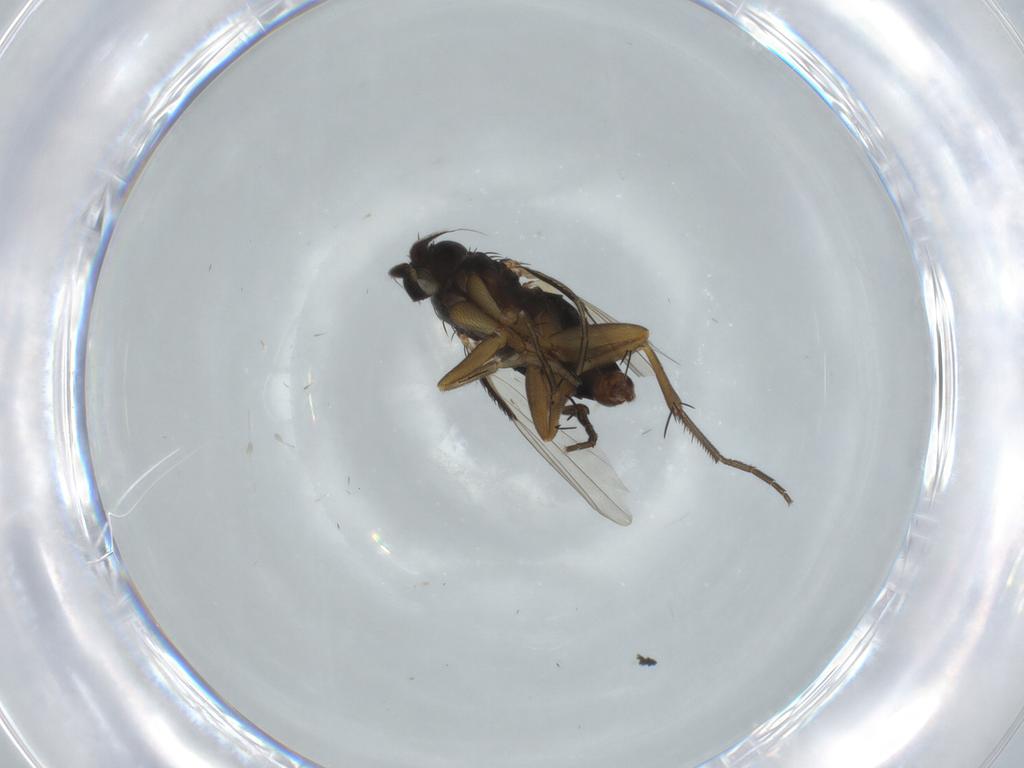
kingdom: Animalia
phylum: Arthropoda
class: Insecta
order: Diptera
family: Phoridae
